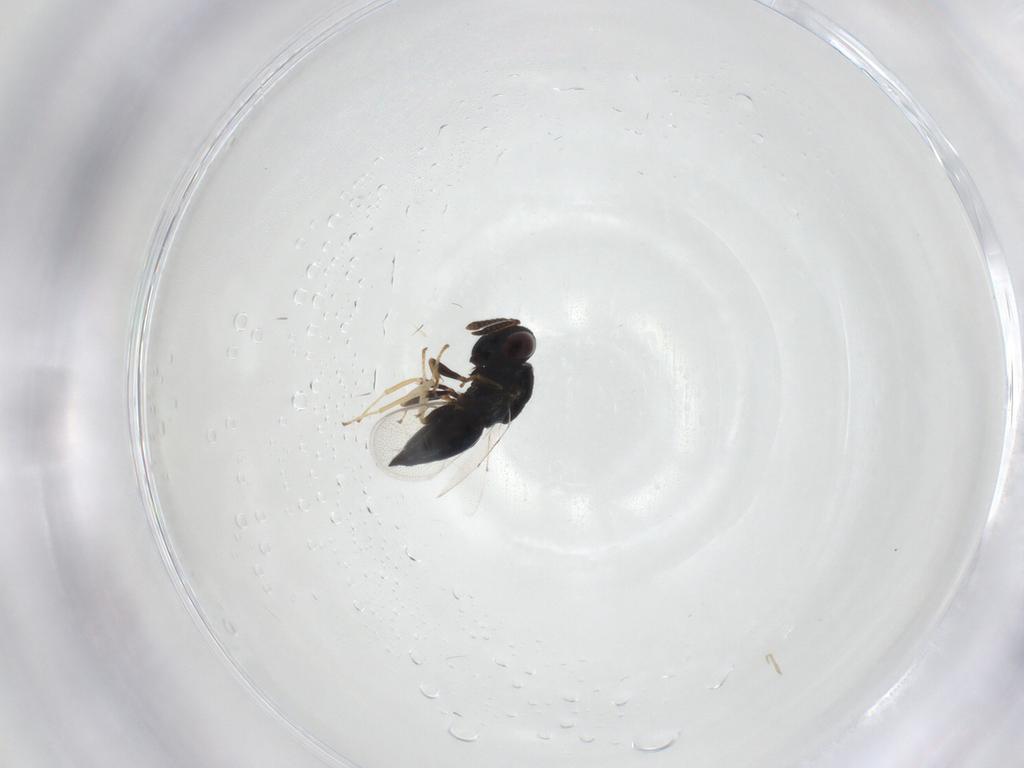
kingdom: Animalia
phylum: Arthropoda
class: Insecta
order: Hymenoptera
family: Pteromalidae
